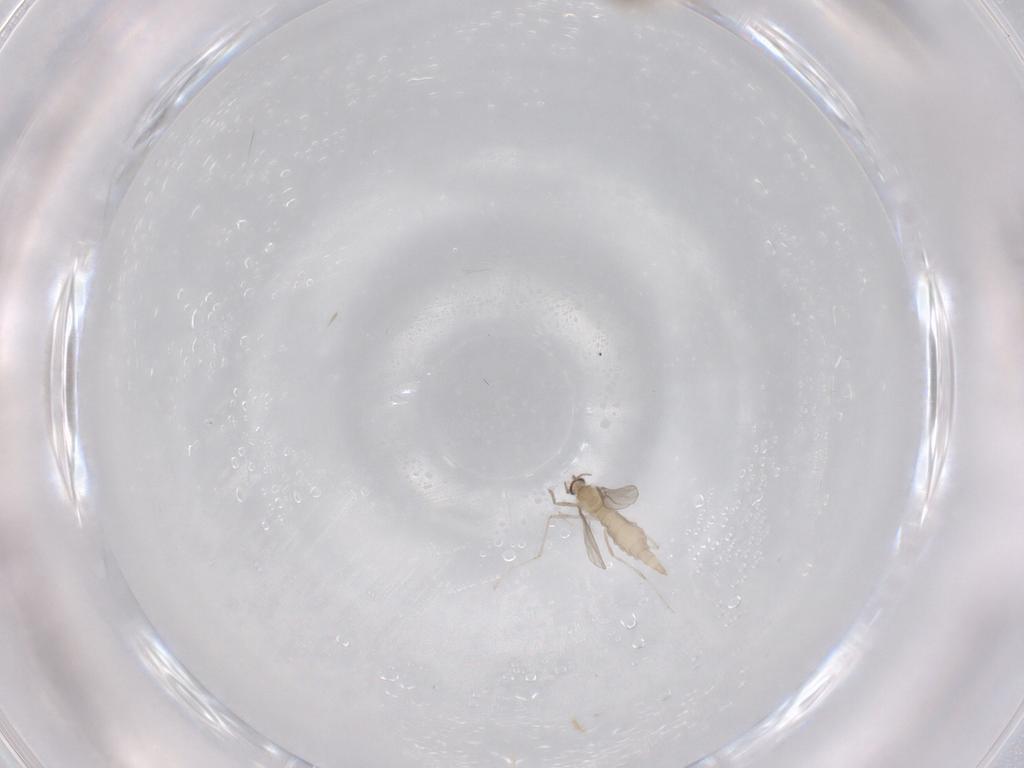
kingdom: Animalia
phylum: Arthropoda
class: Insecta
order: Diptera
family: Cecidomyiidae
